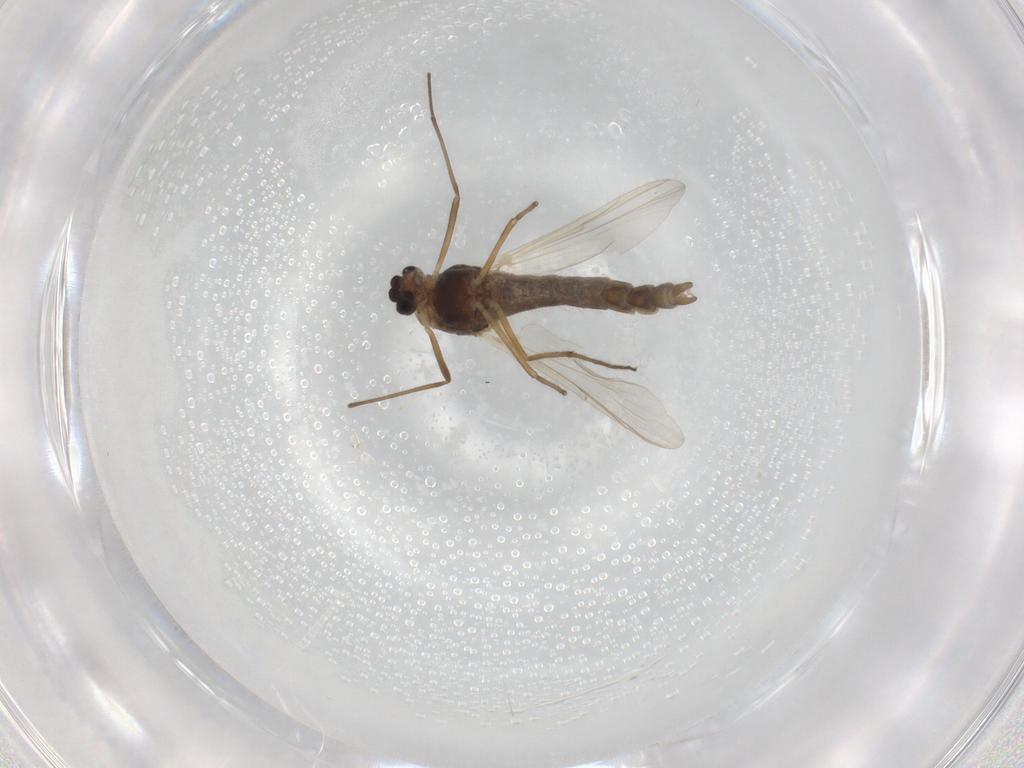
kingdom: Animalia
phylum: Arthropoda
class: Insecta
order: Diptera
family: Chironomidae
